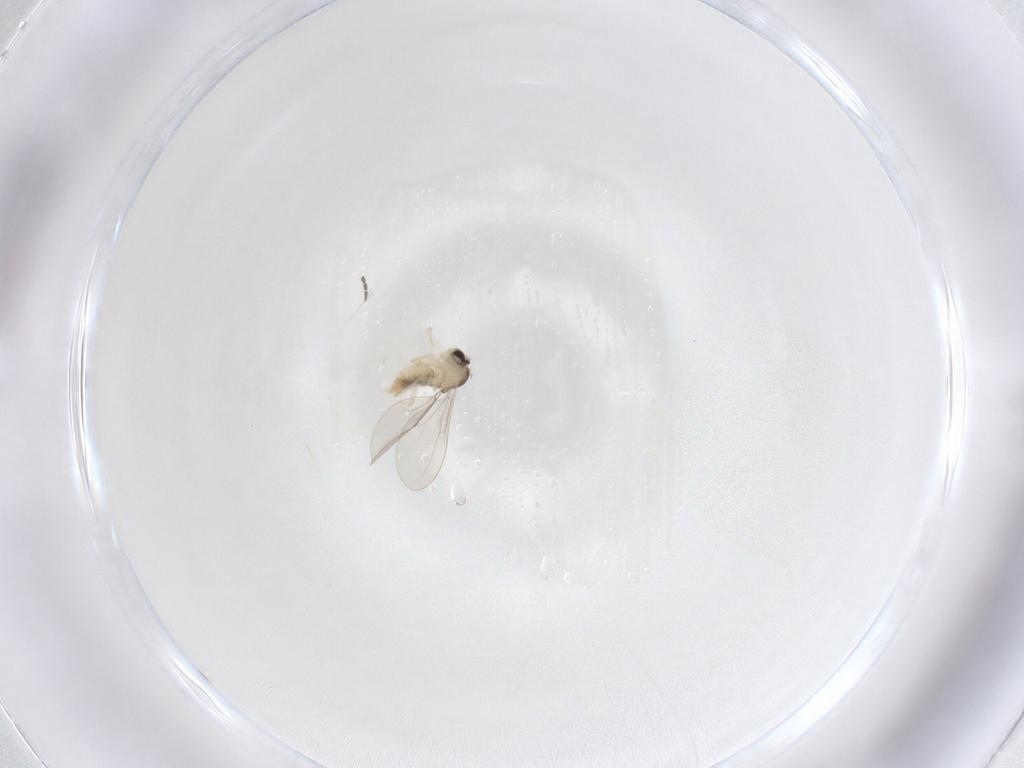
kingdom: Animalia
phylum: Arthropoda
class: Insecta
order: Diptera
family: Cecidomyiidae
